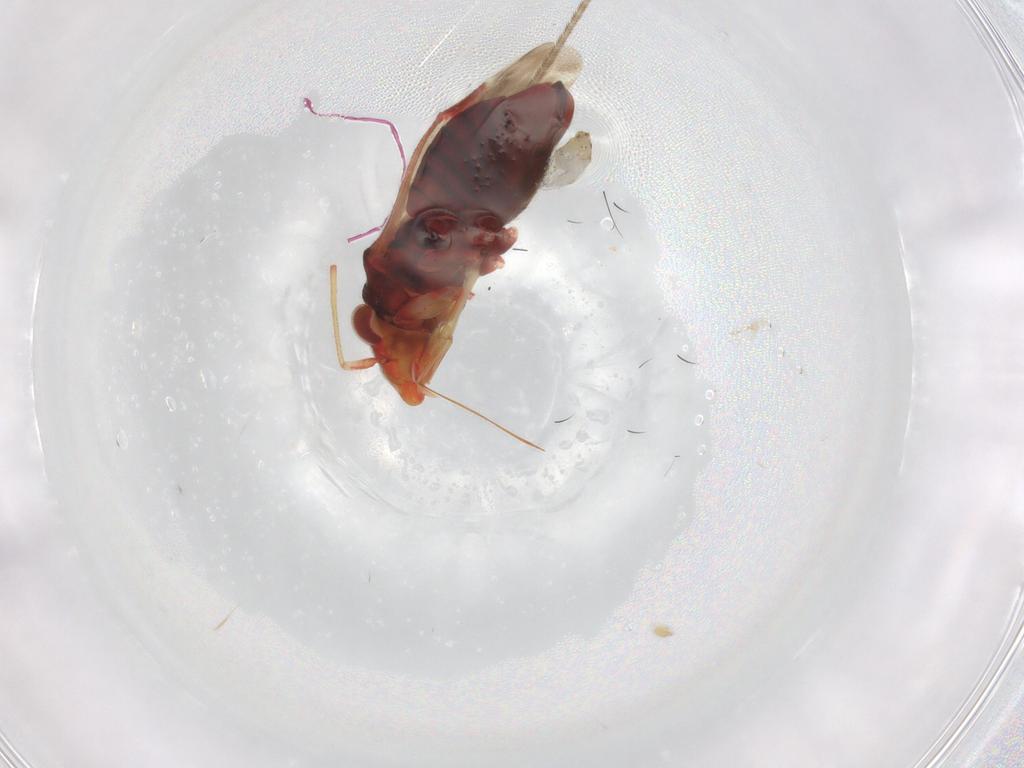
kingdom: Animalia
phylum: Arthropoda
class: Insecta
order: Hemiptera
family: Miridae
